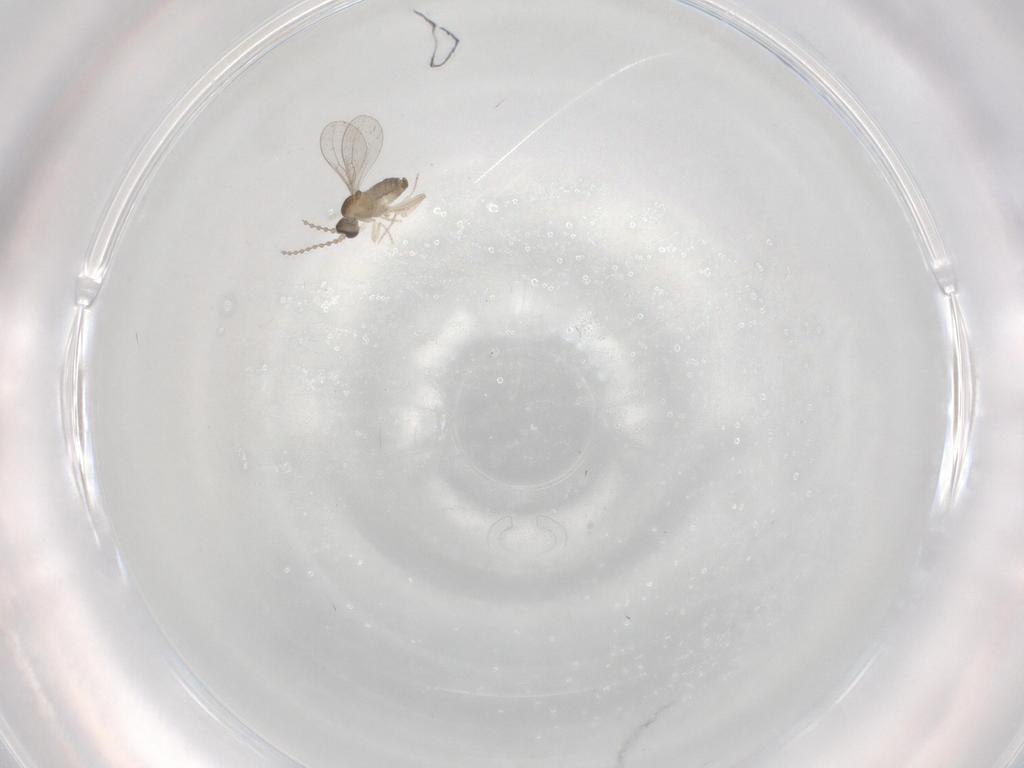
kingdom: Animalia
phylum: Arthropoda
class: Insecta
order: Diptera
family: Cecidomyiidae
